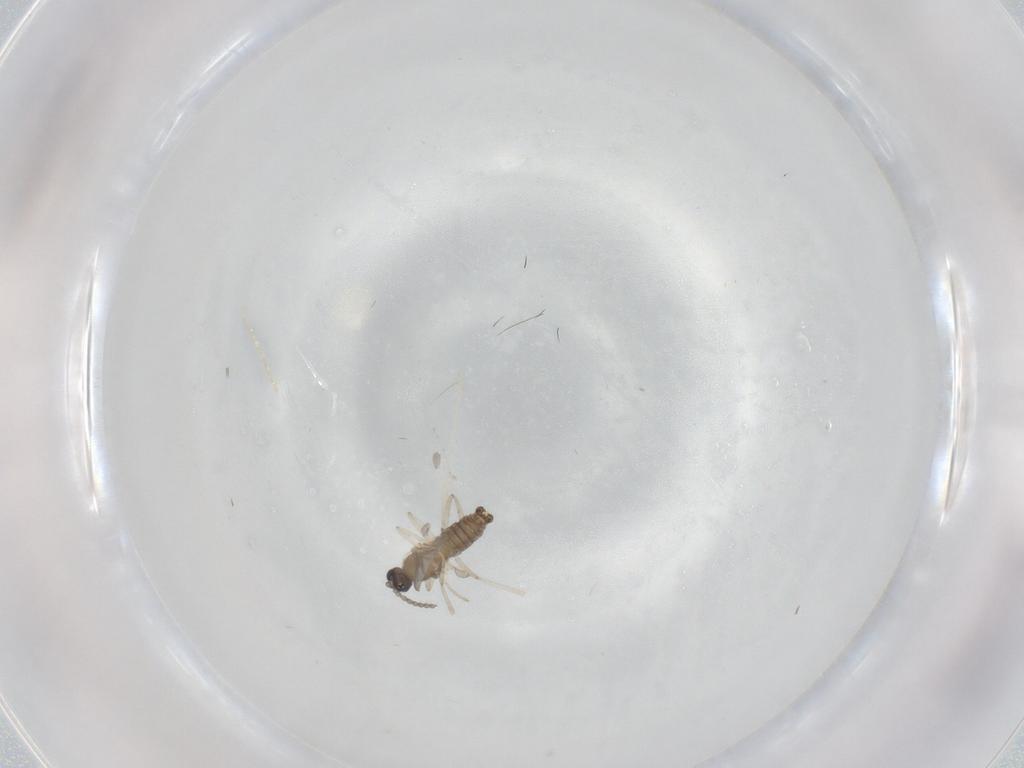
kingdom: Animalia
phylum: Arthropoda
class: Insecta
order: Diptera
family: Cecidomyiidae
